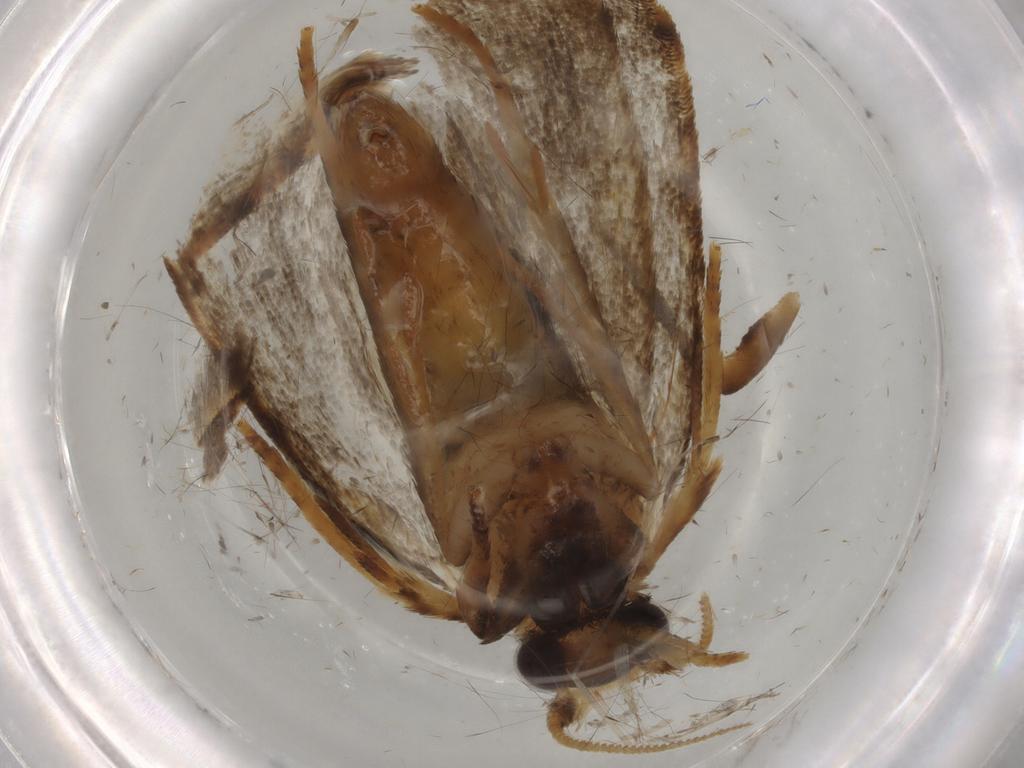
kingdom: Animalia
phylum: Arthropoda
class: Insecta
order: Lepidoptera
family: Tineidae
